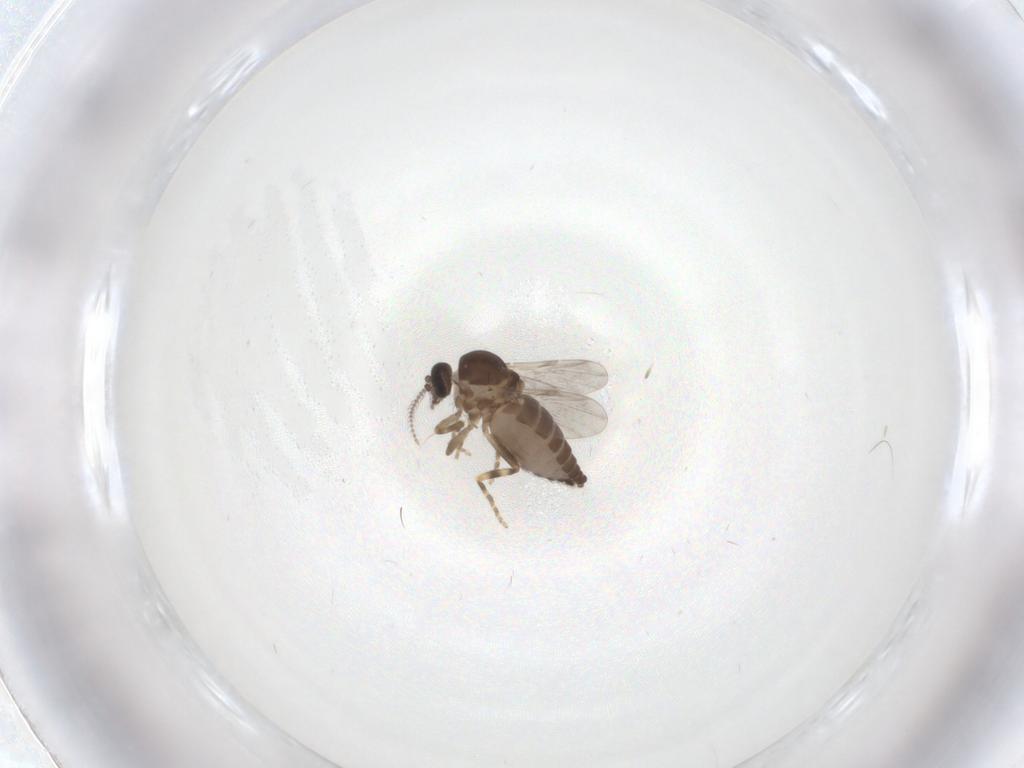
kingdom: Animalia
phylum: Arthropoda
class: Insecta
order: Diptera
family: Ceratopogonidae
